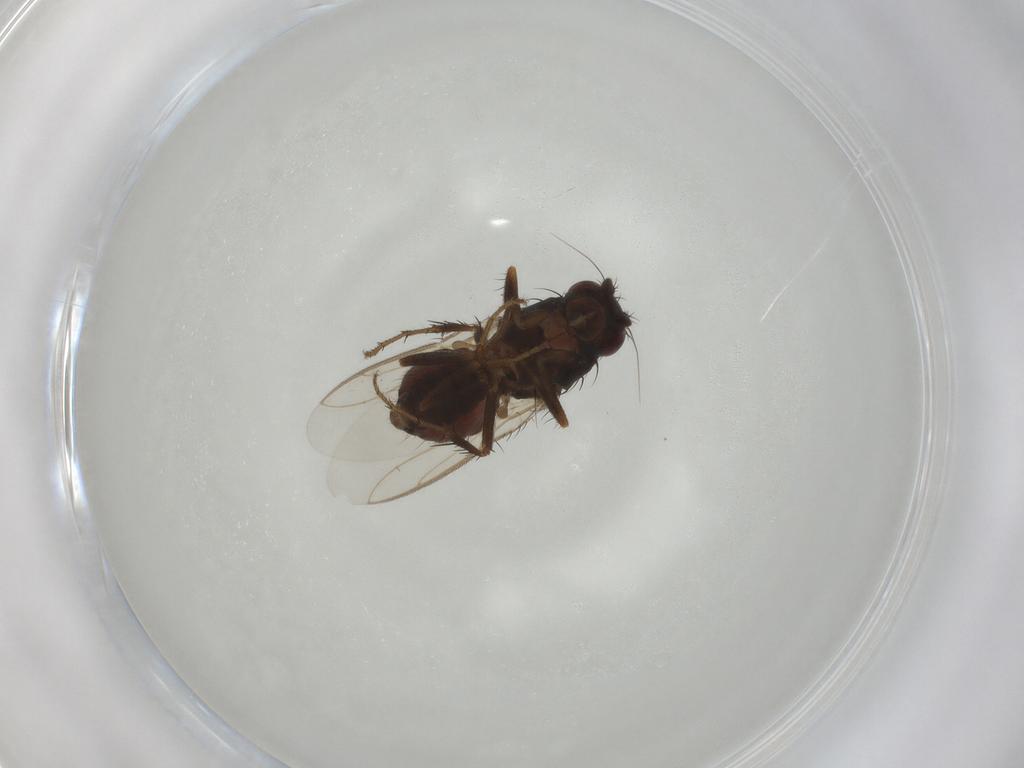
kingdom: Animalia
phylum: Arthropoda
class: Insecta
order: Diptera
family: Sphaeroceridae
